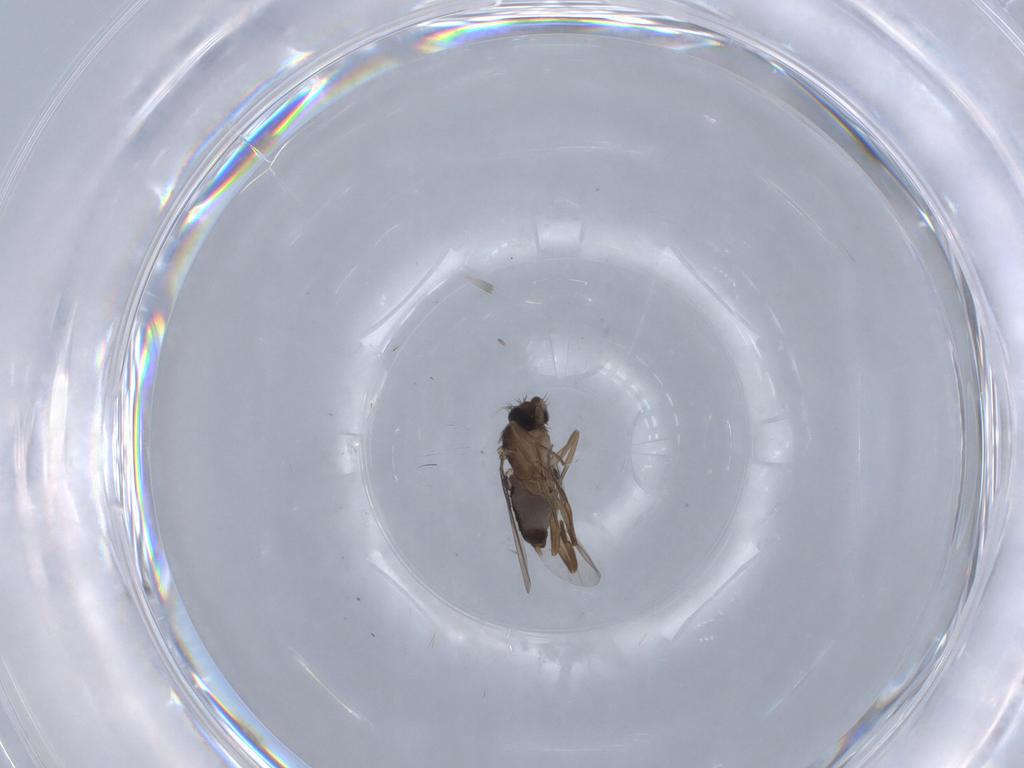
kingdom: Animalia
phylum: Arthropoda
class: Insecta
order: Diptera
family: Phoridae
